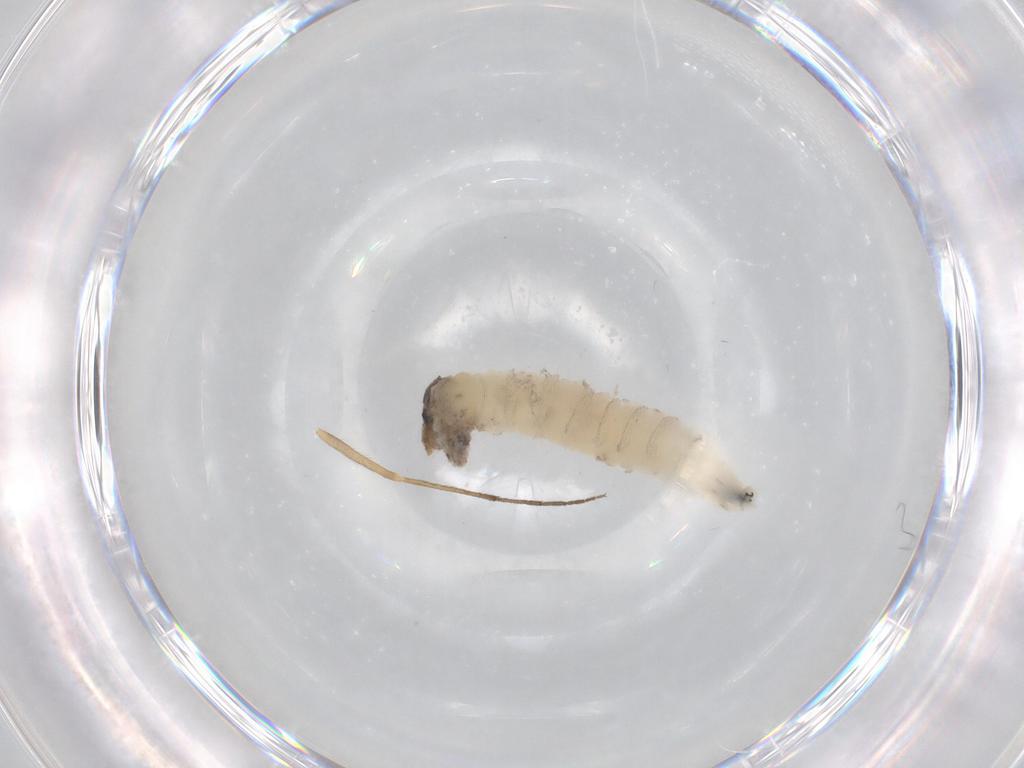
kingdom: Animalia
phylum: Arthropoda
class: Insecta
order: Diptera
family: Drosophilidae
